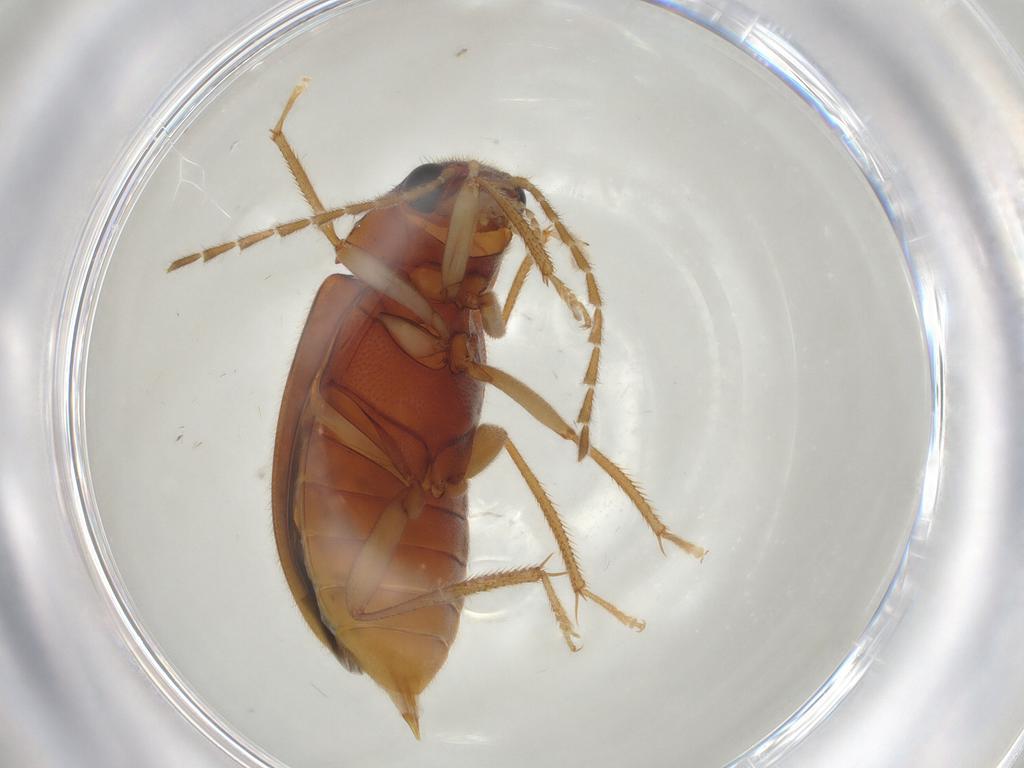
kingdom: Animalia
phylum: Arthropoda
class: Insecta
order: Coleoptera
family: Ptilodactylidae
